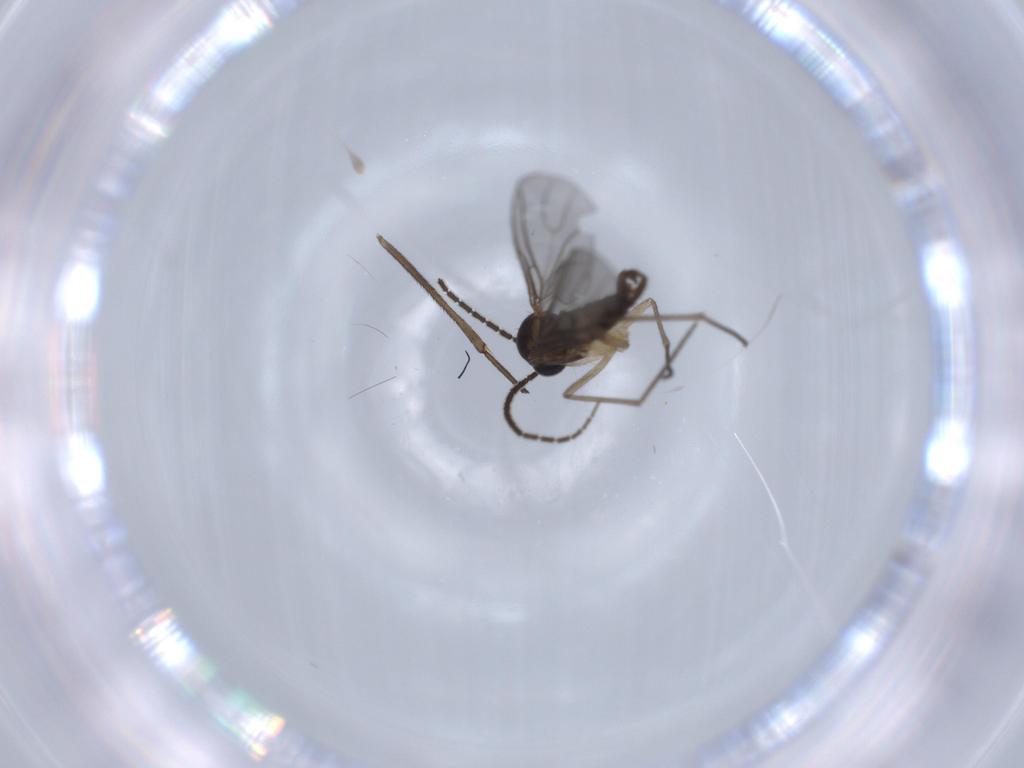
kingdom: Animalia
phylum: Arthropoda
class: Insecta
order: Diptera
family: Sciaridae
